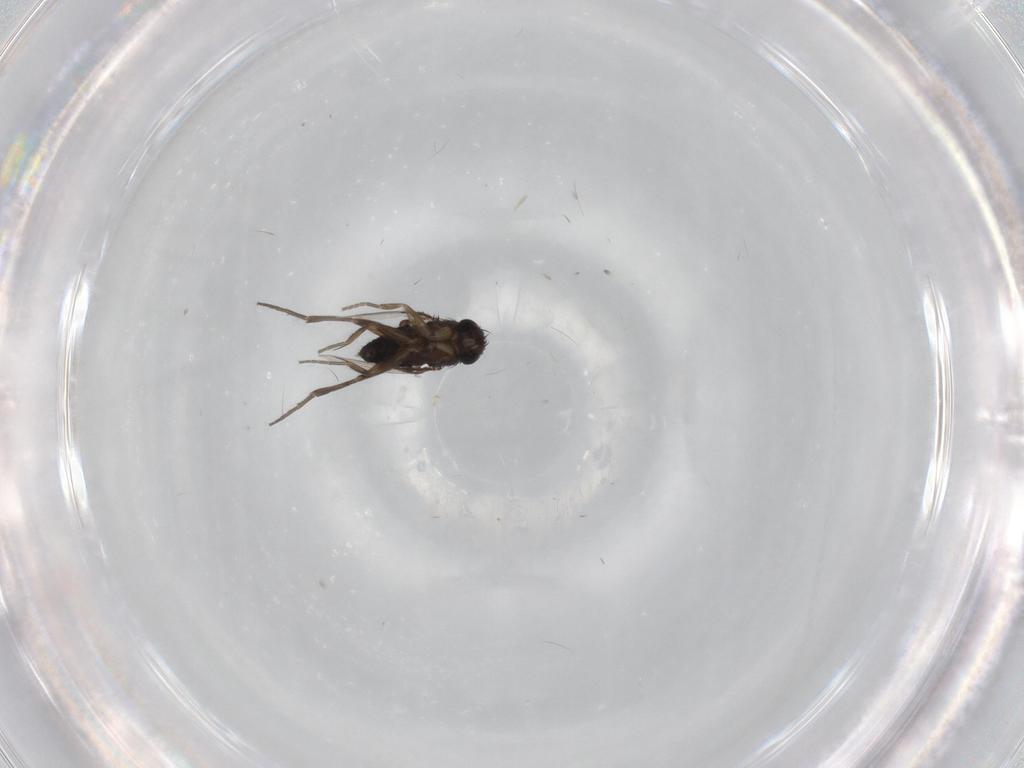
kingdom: Animalia
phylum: Arthropoda
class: Insecta
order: Diptera
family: Phoridae
